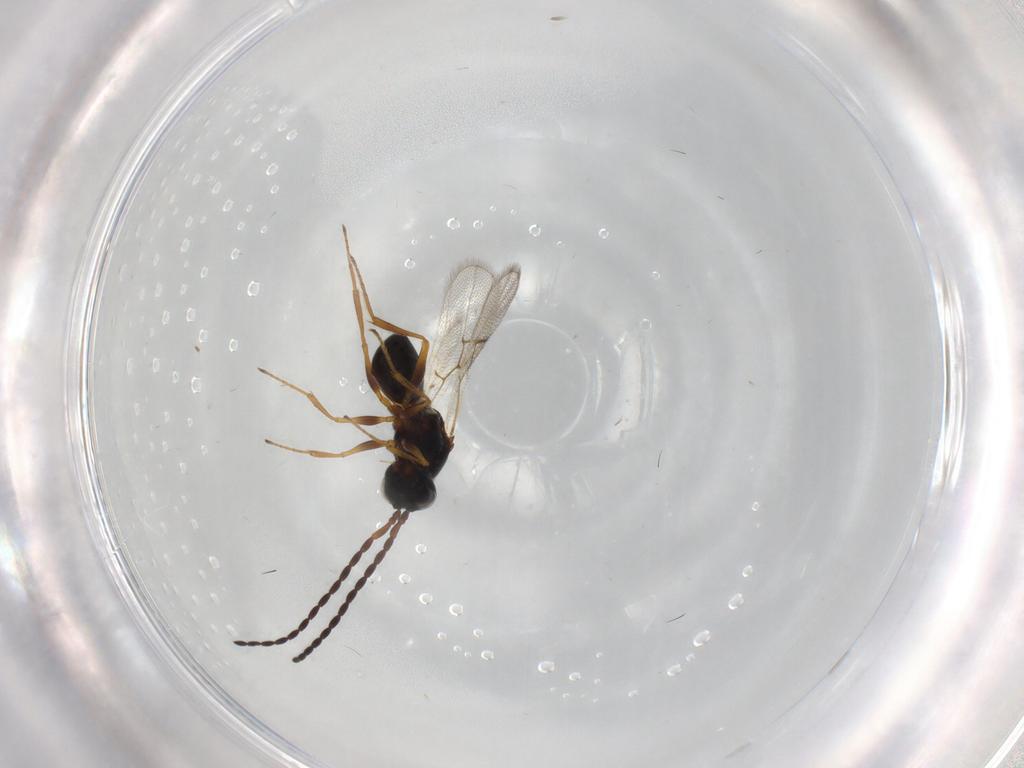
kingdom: Animalia
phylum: Arthropoda
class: Insecta
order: Hymenoptera
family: Figitidae
